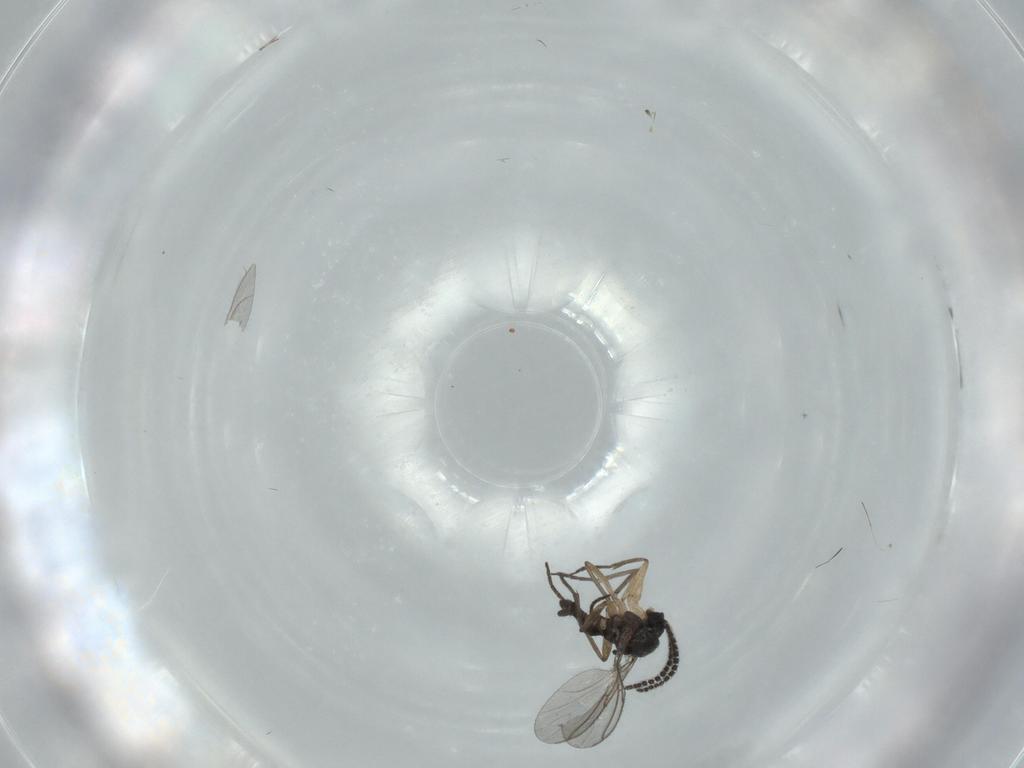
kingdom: Animalia
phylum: Arthropoda
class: Insecta
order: Diptera
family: Sciaridae
